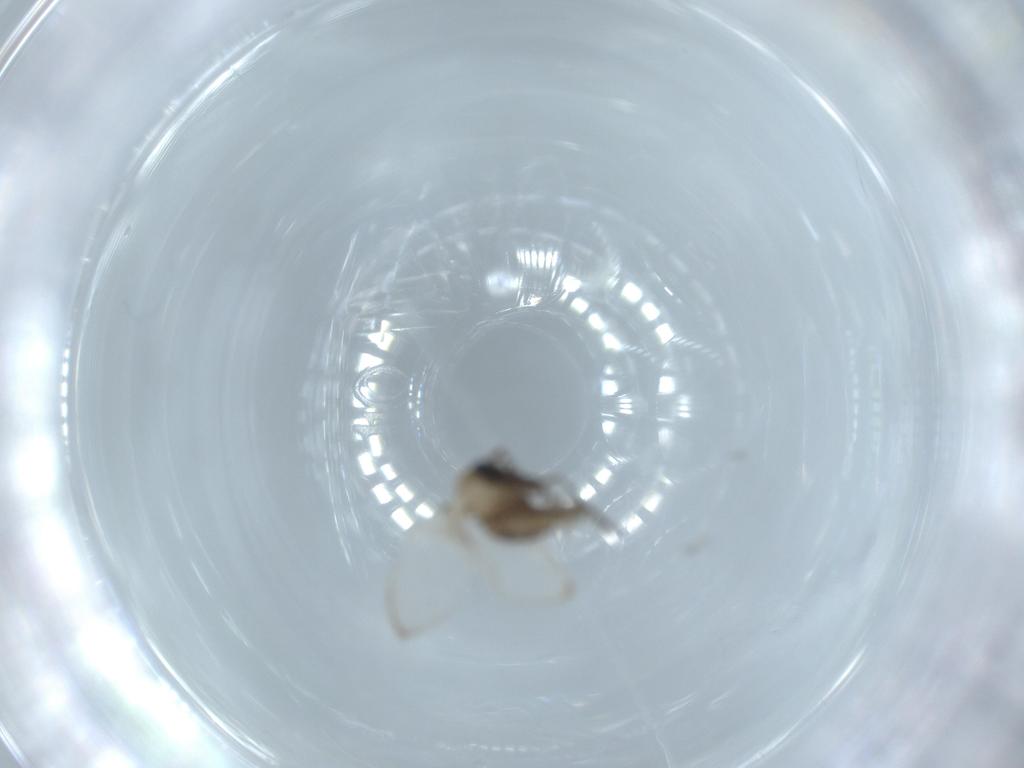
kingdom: Animalia
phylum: Arthropoda
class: Insecta
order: Diptera
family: Psychodidae
